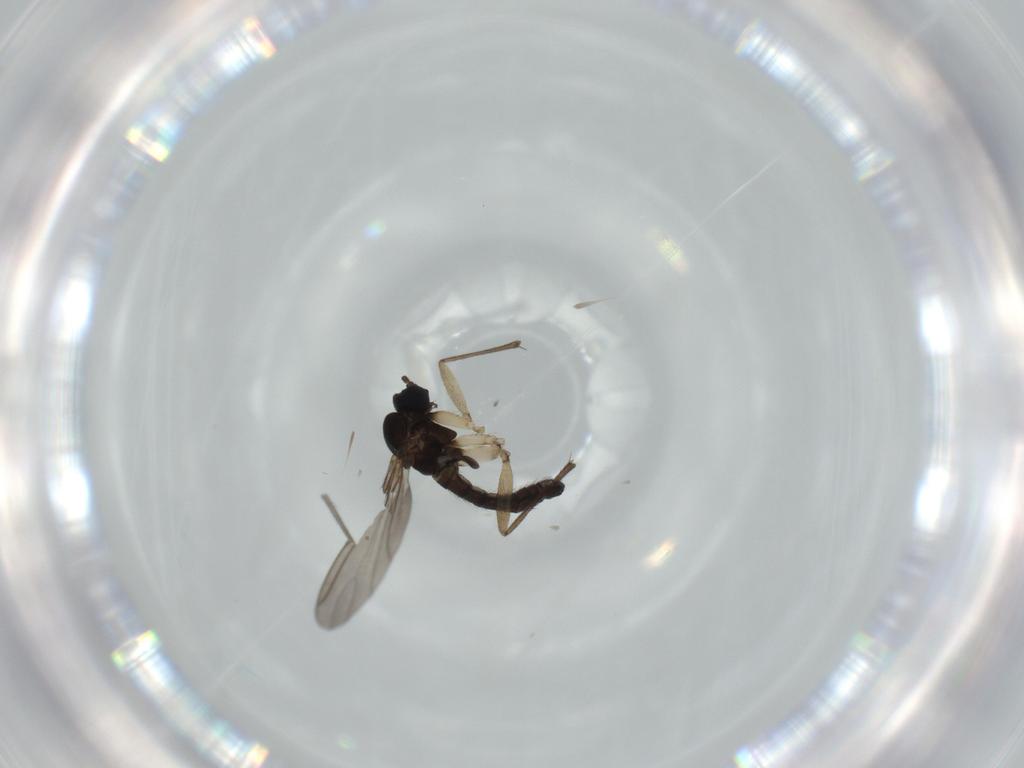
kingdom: Animalia
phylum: Arthropoda
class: Insecta
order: Diptera
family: Sciaridae
